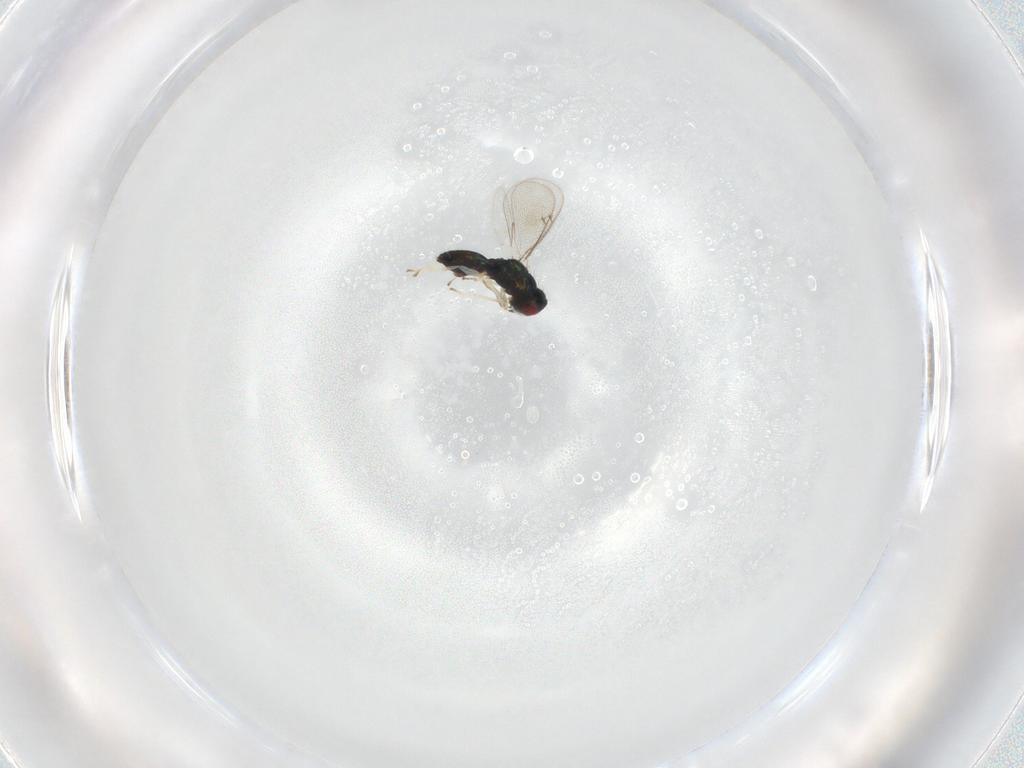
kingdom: Animalia
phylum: Arthropoda
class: Insecta
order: Hymenoptera
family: Eulophidae
